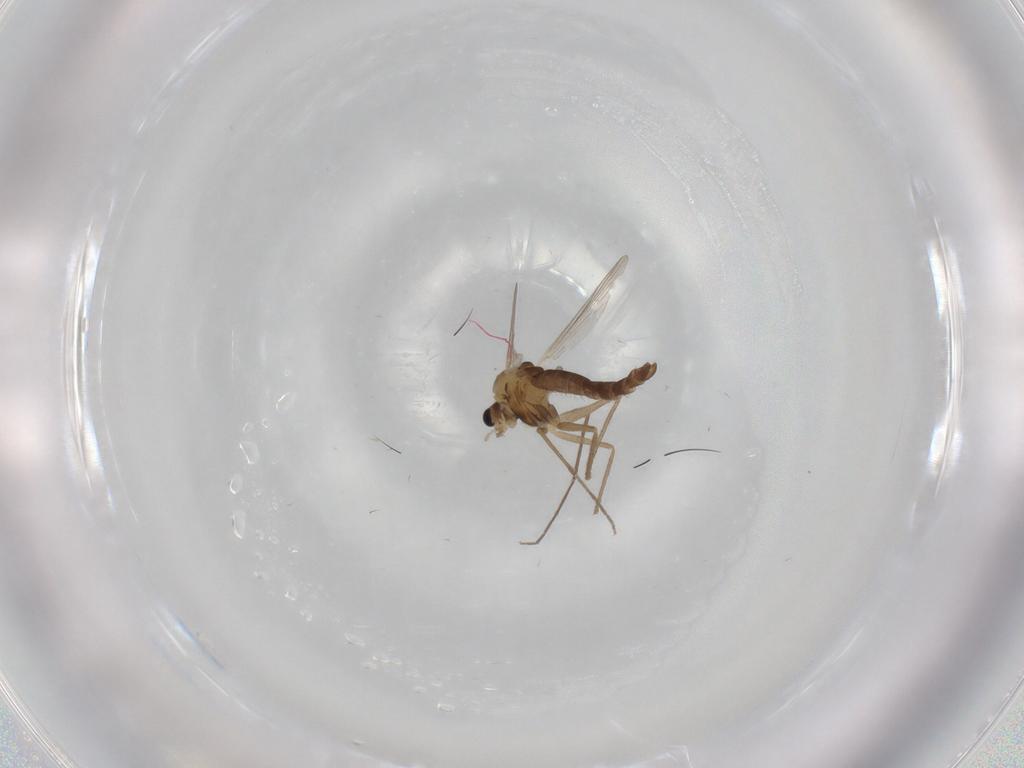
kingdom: Animalia
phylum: Arthropoda
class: Insecta
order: Diptera
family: Chironomidae
